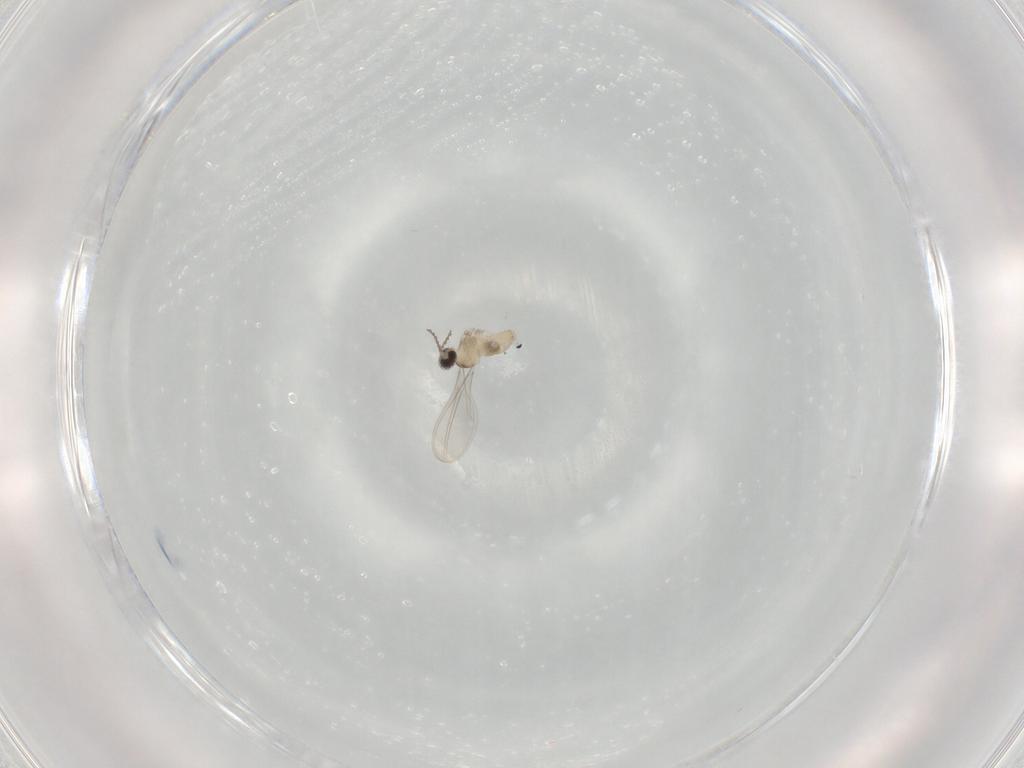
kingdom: Animalia
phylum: Arthropoda
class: Insecta
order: Diptera
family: Cecidomyiidae
